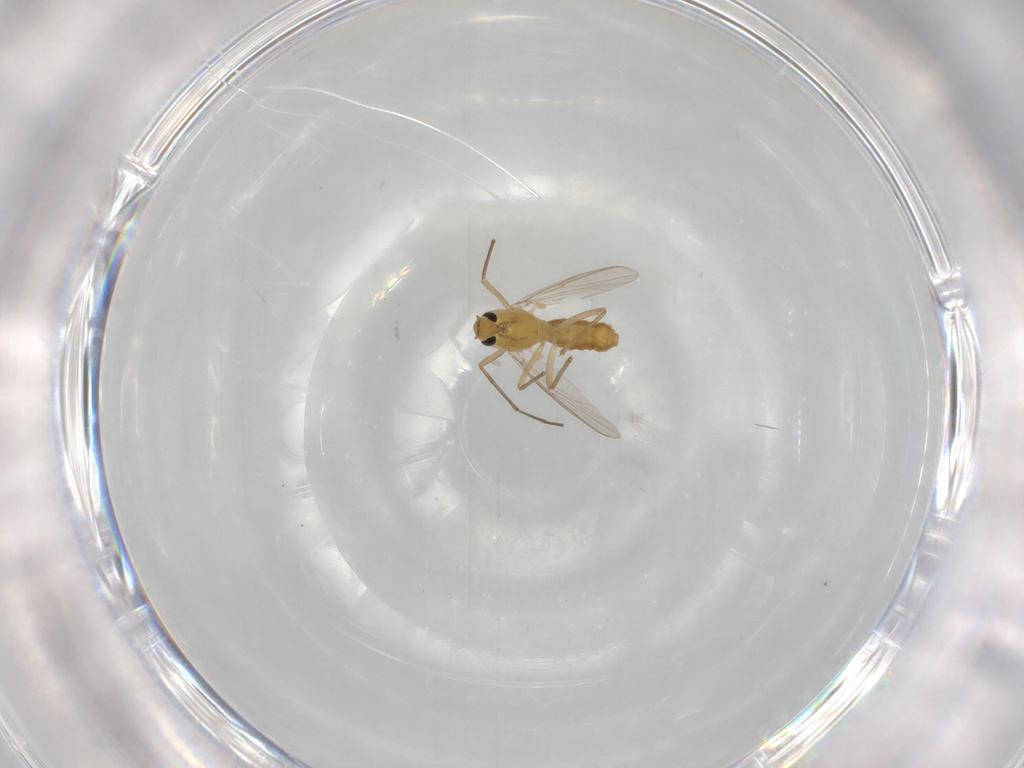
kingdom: Animalia
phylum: Arthropoda
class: Insecta
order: Diptera
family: Chironomidae
